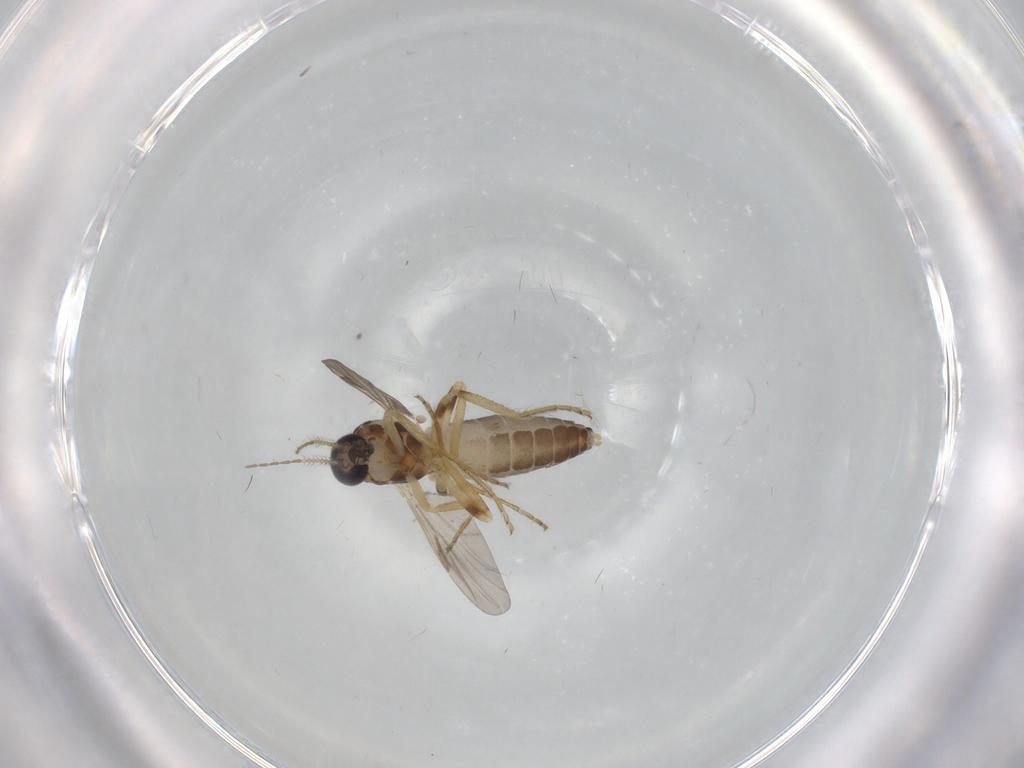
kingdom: Animalia
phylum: Arthropoda
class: Insecta
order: Diptera
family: Ceratopogonidae
